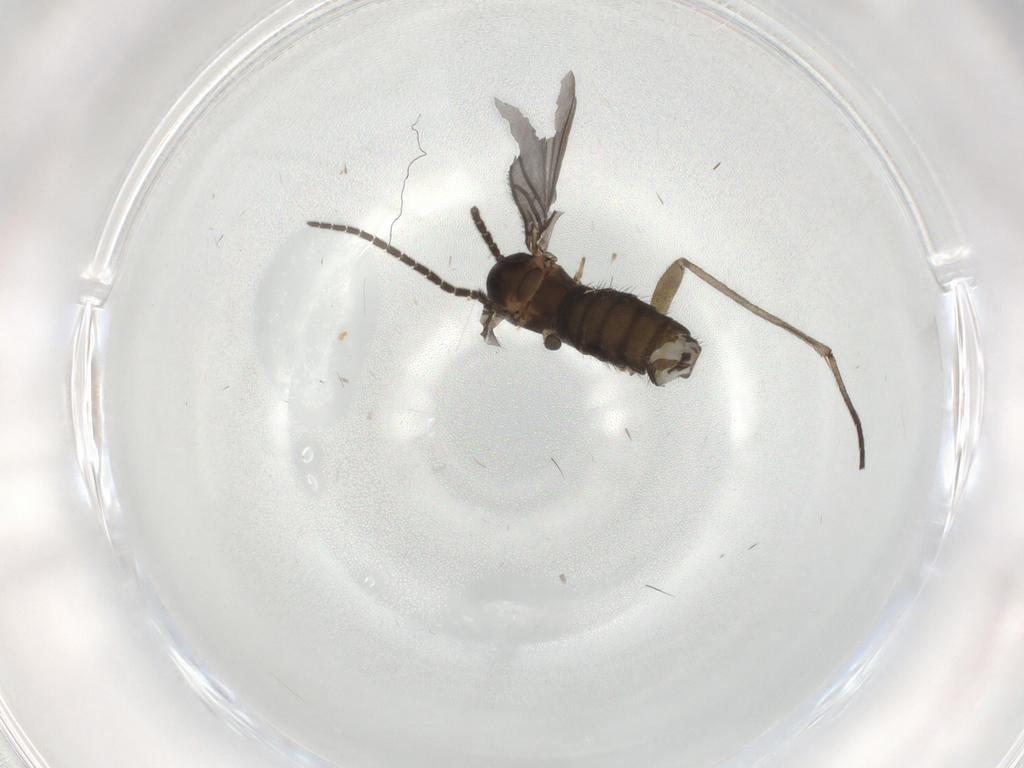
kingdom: Animalia
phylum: Arthropoda
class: Insecta
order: Diptera
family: Sciaridae
